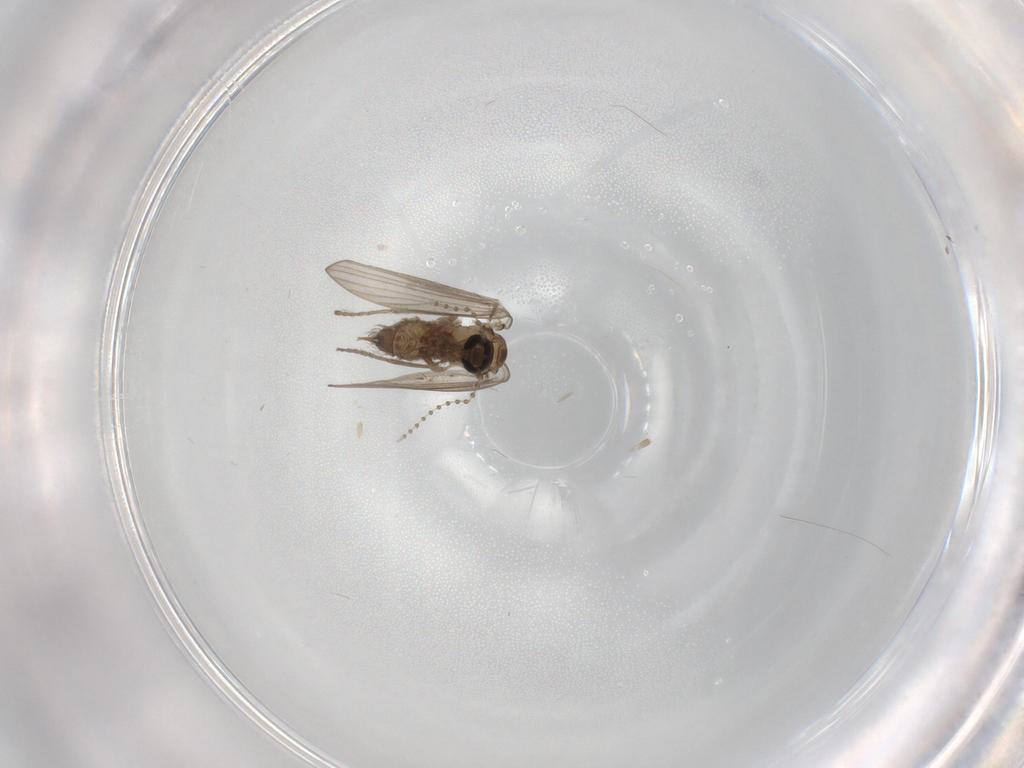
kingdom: Animalia
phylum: Arthropoda
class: Insecta
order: Diptera
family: Psychodidae
